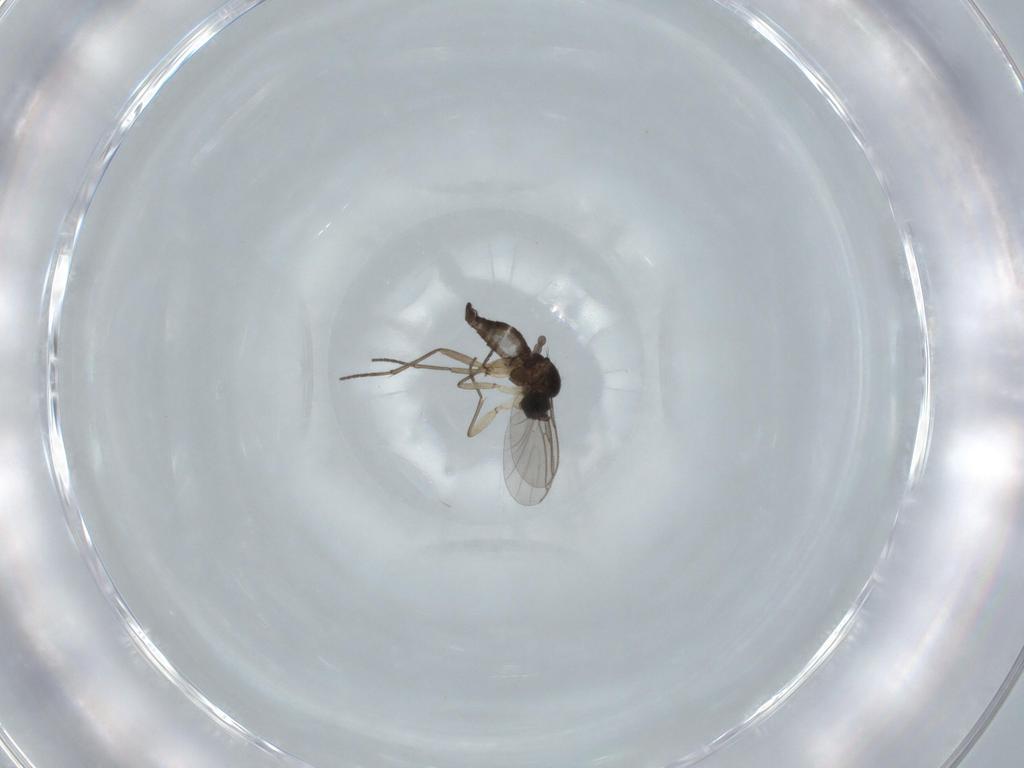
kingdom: Animalia
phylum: Arthropoda
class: Insecta
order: Diptera
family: Sciaridae
